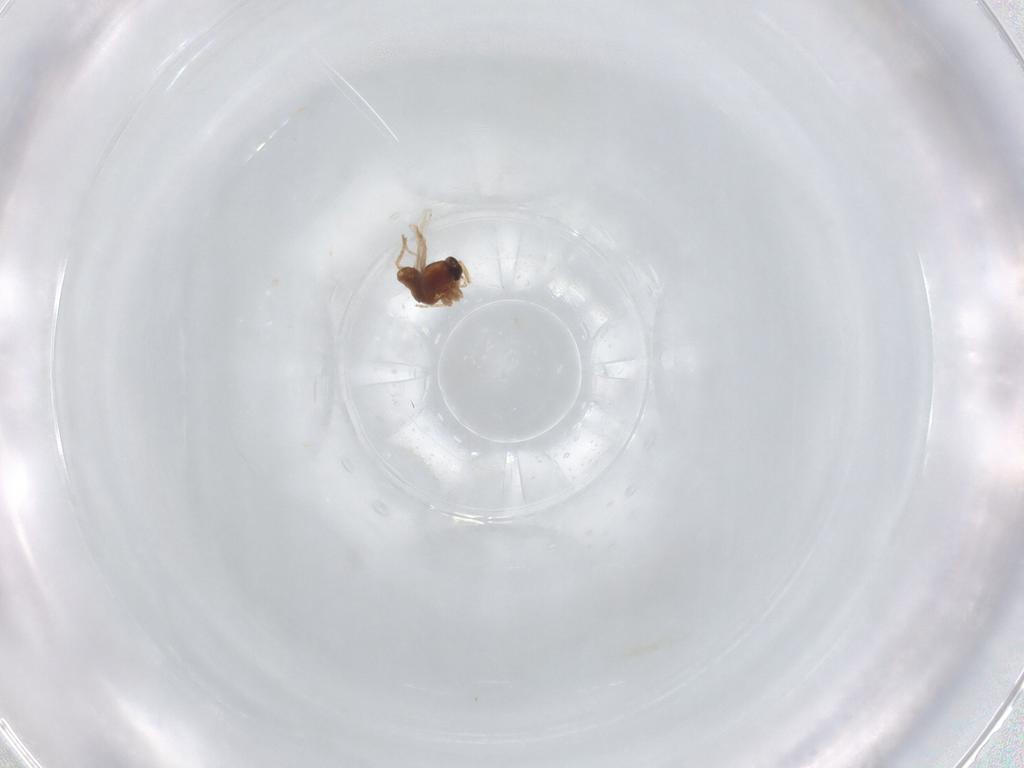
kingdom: Animalia
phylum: Arthropoda
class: Insecta
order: Diptera
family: Ceratopogonidae
